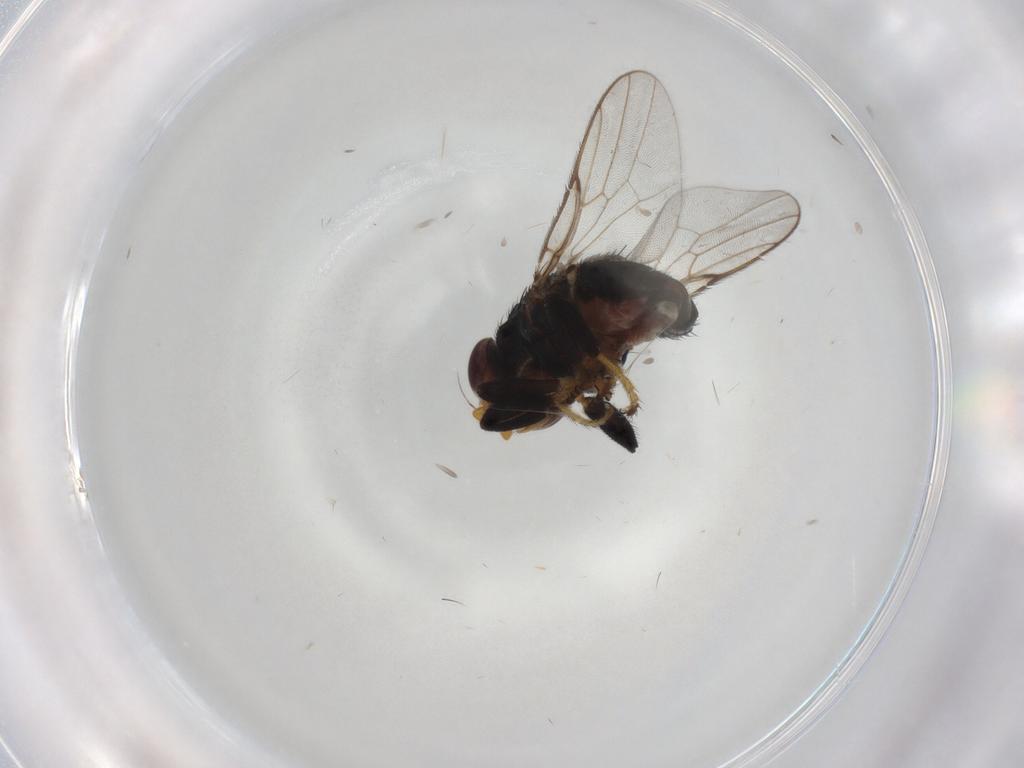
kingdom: Animalia
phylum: Arthropoda
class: Insecta
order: Diptera
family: Chloropidae
